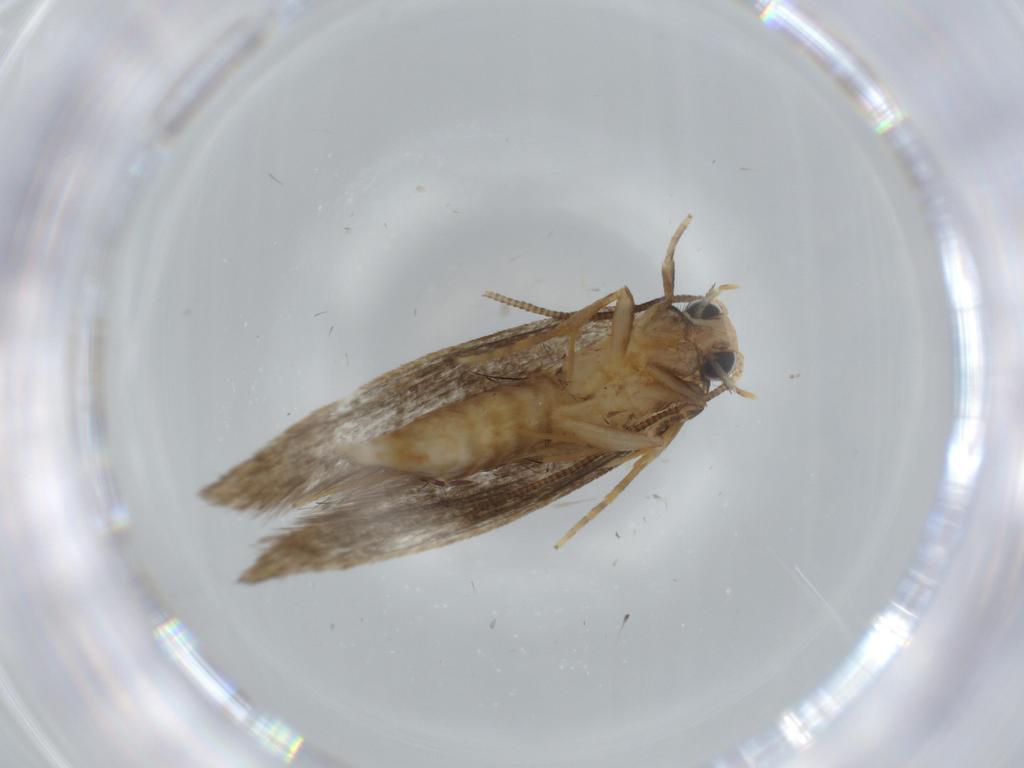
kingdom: Animalia
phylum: Arthropoda
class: Insecta
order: Lepidoptera
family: Tineidae
